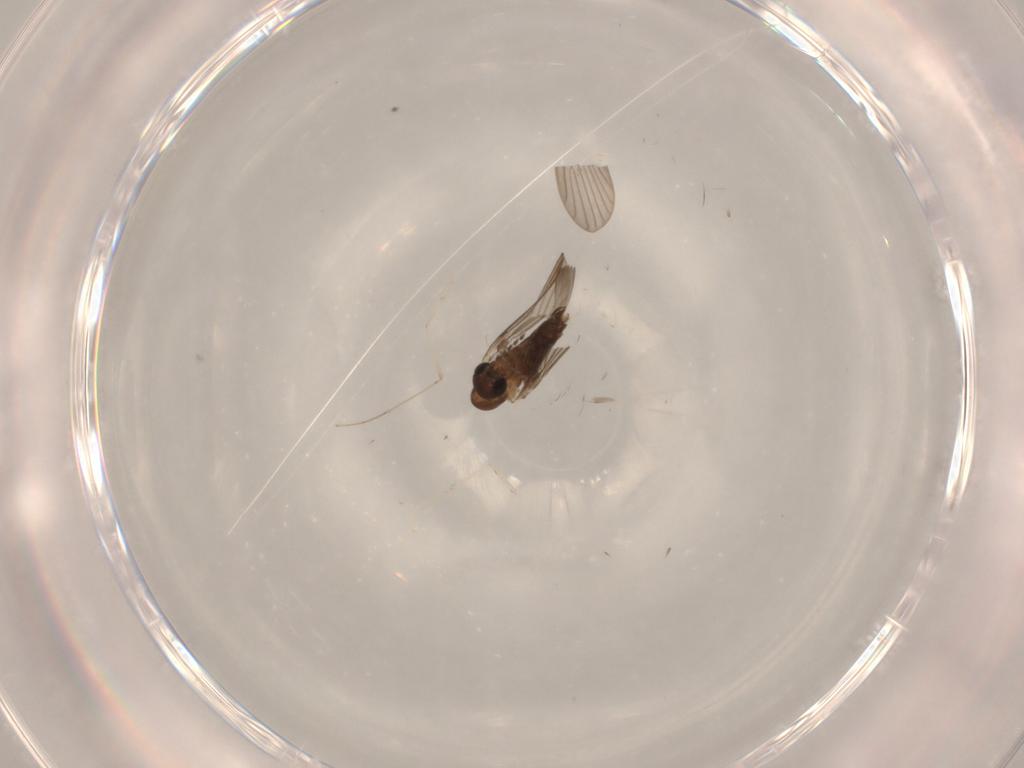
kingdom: Animalia
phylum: Arthropoda
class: Insecta
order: Diptera
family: Cecidomyiidae
